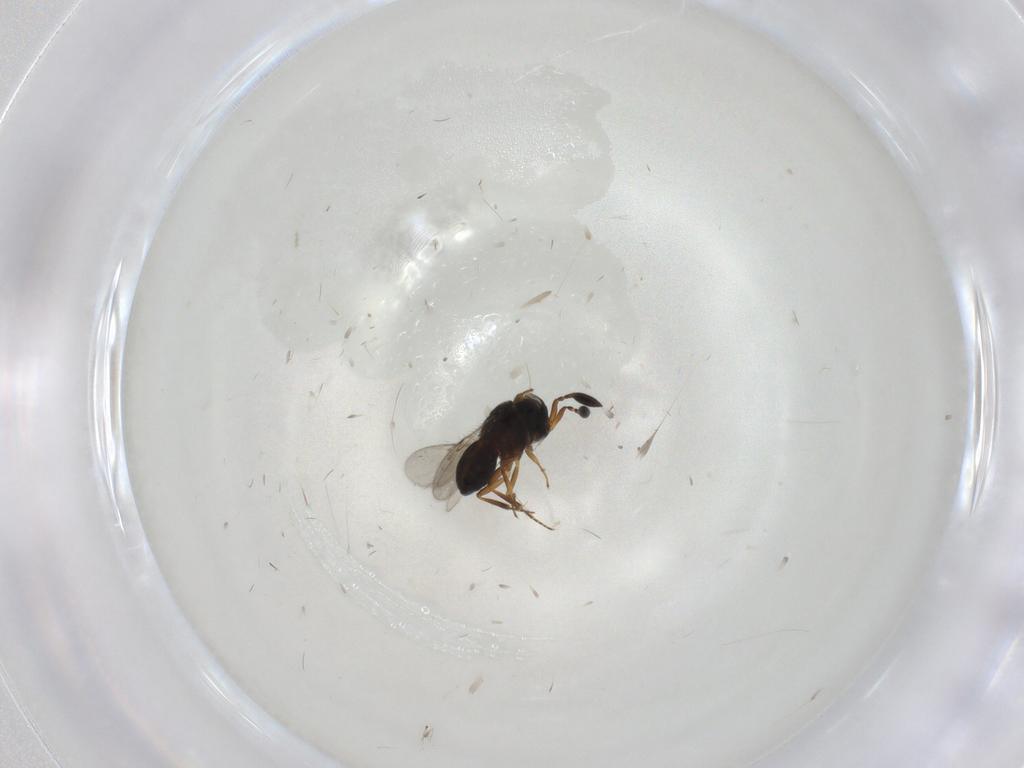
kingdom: Animalia
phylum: Arthropoda
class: Insecta
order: Hymenoptera
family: Scelionidae
